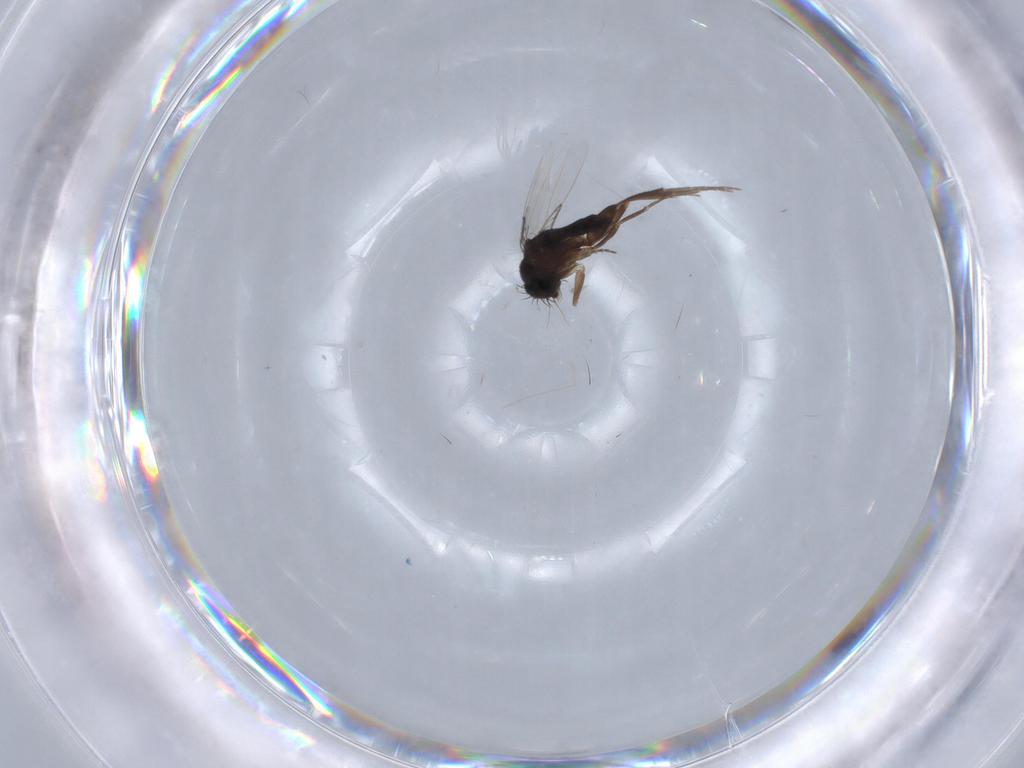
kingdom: Animalia
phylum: Arthropoda
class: Insecta
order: Diptera
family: Phoridae
